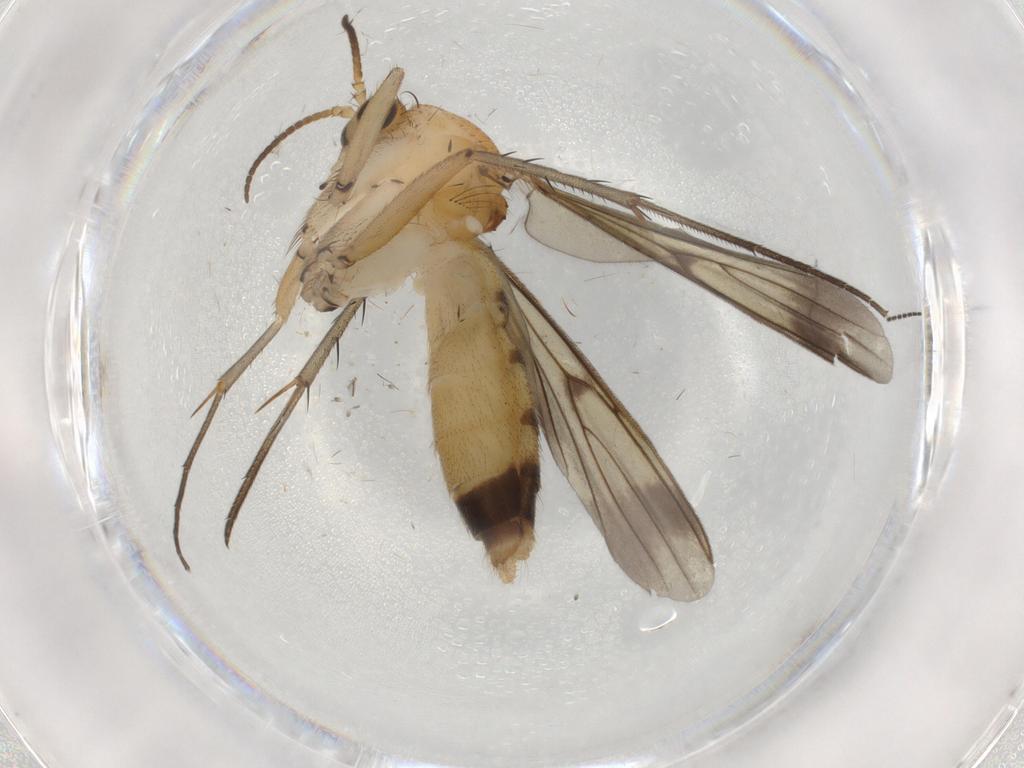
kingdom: Animalia
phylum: Arthropoda
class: Insecta
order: Diptera
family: Mycetophilidae
